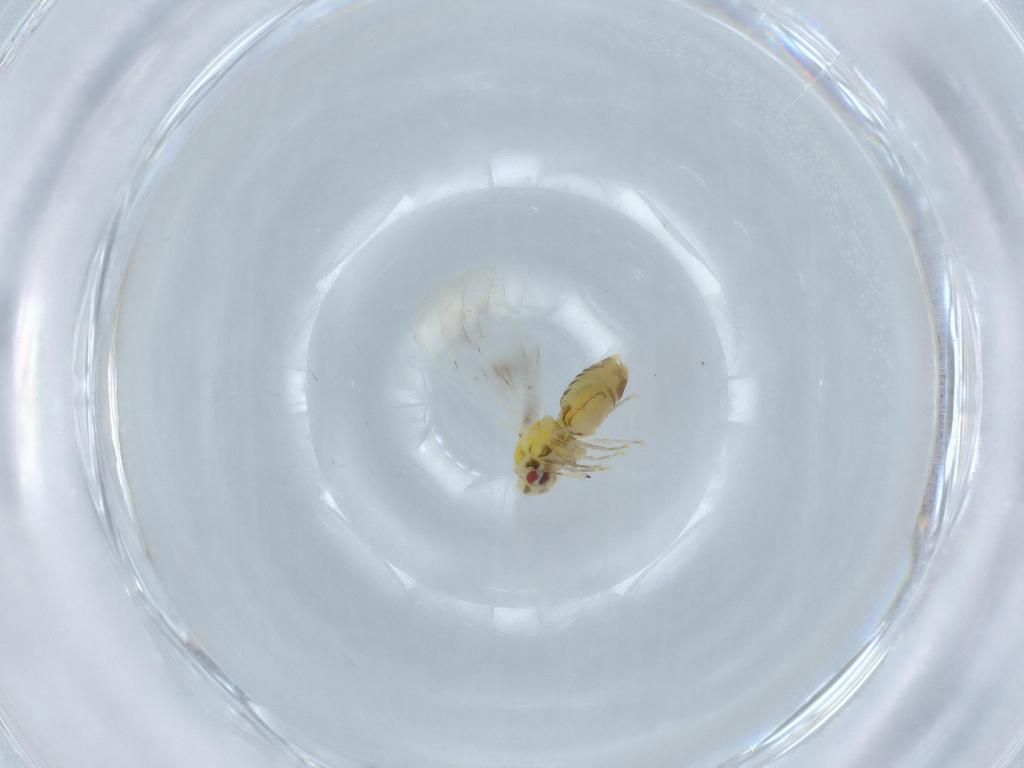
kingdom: Animalia
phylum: Arthropoda
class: Insecta
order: Hemiptera
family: Aleyrodidae
